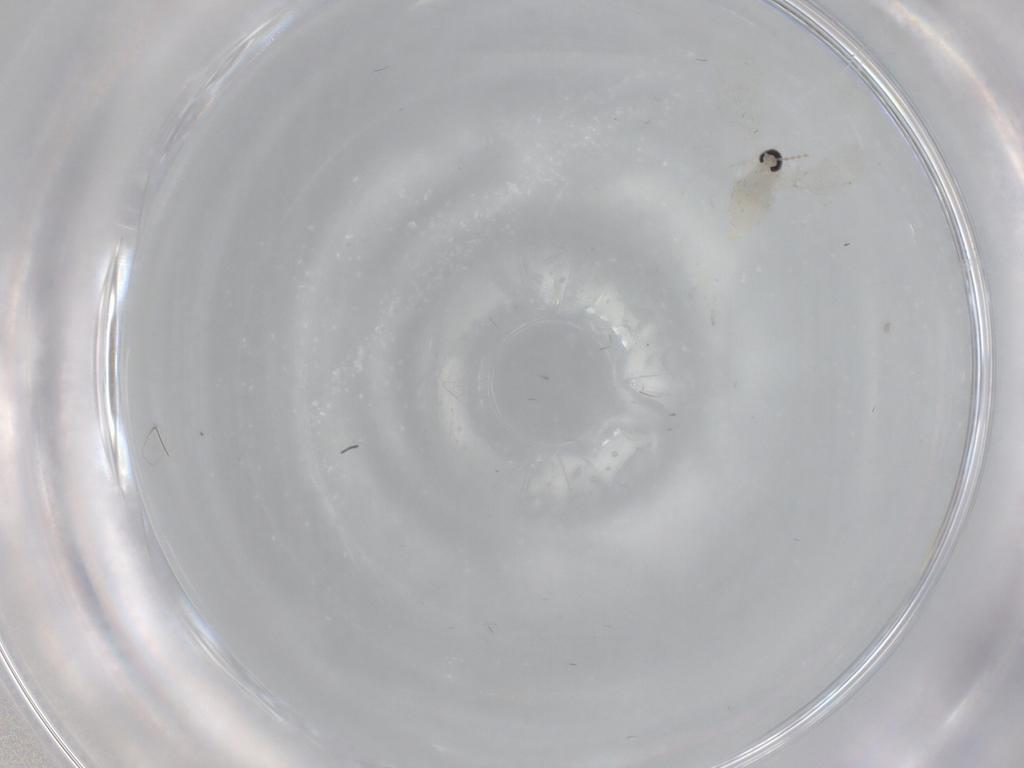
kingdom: Animalia
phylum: Arthropoda
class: Insecta
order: Diptera
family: Cecidomyiidae
